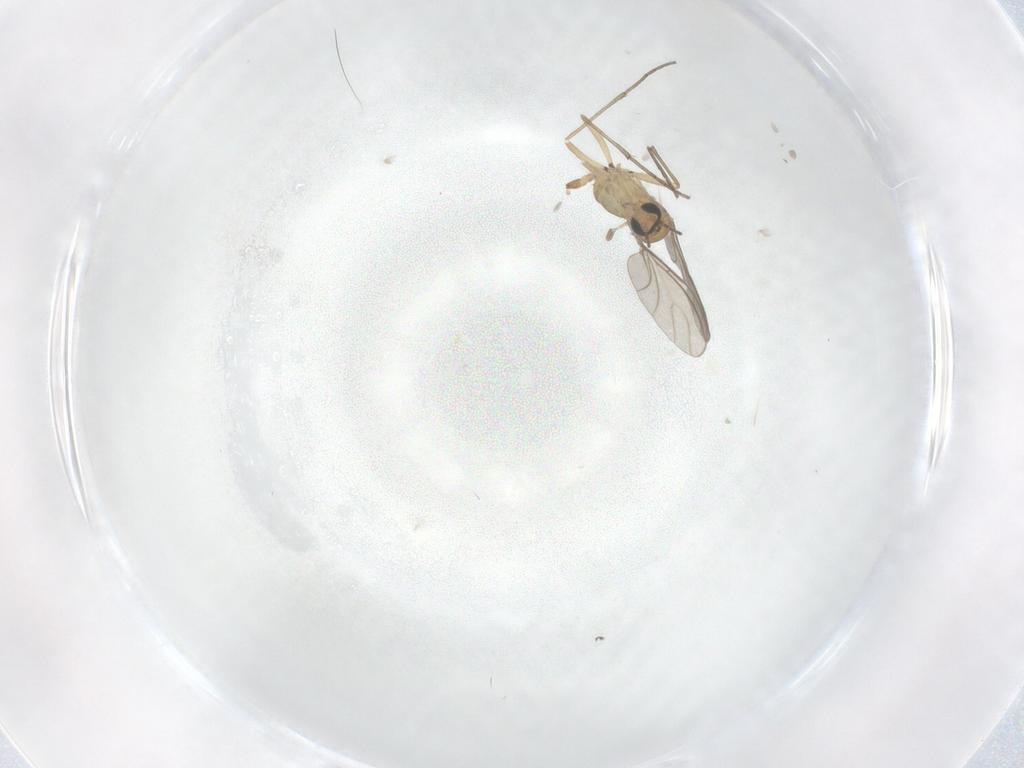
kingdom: Animalia
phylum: Arthropoda
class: Insecta
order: Diptera
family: Sciaridae
